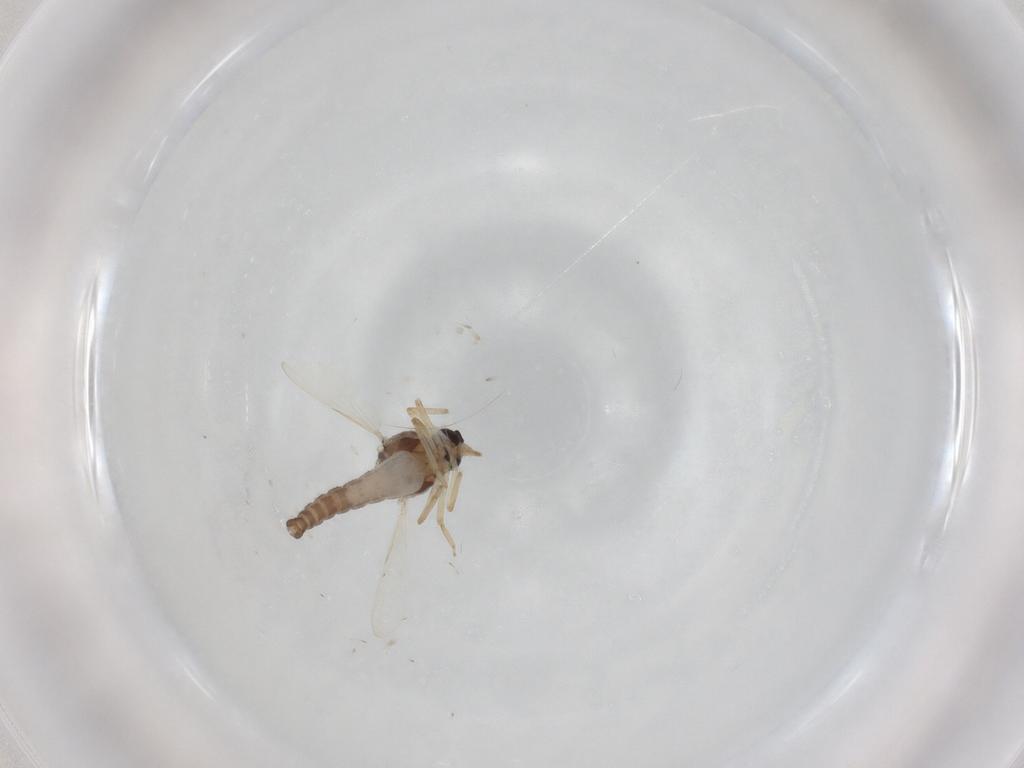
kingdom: Animalia
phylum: Arthropoda
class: Insecta
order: Diptera
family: Ceratopogonidae
